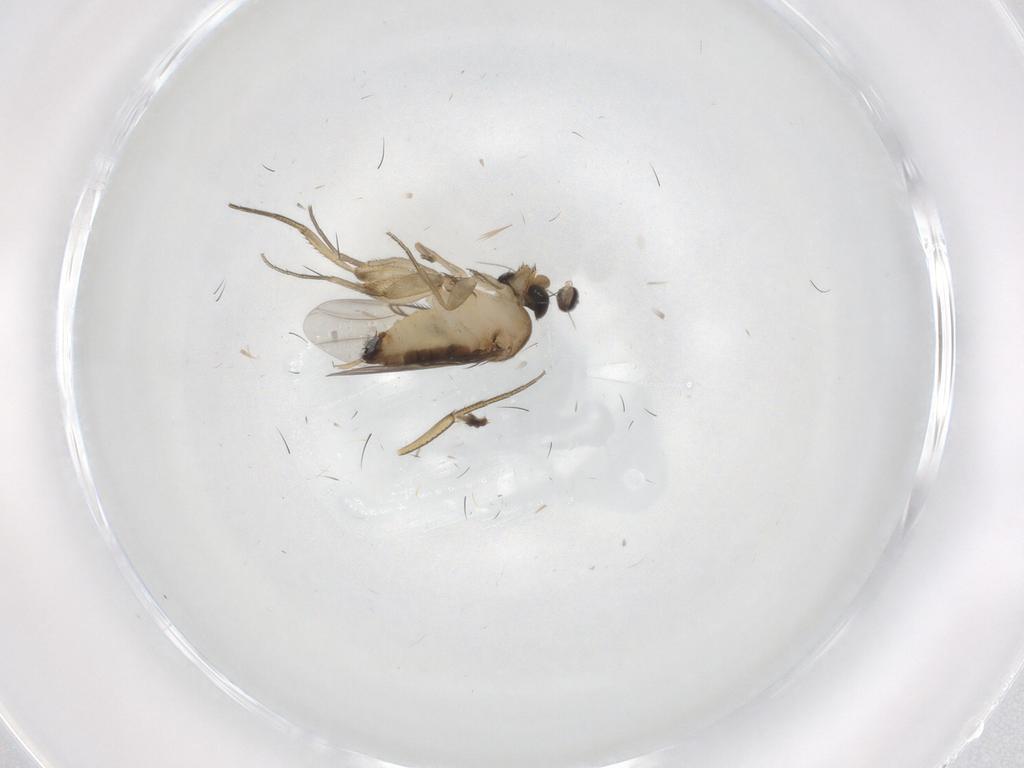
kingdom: Animalia
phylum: Arthropoda
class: Insecta
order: Diptera
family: Phoridae
